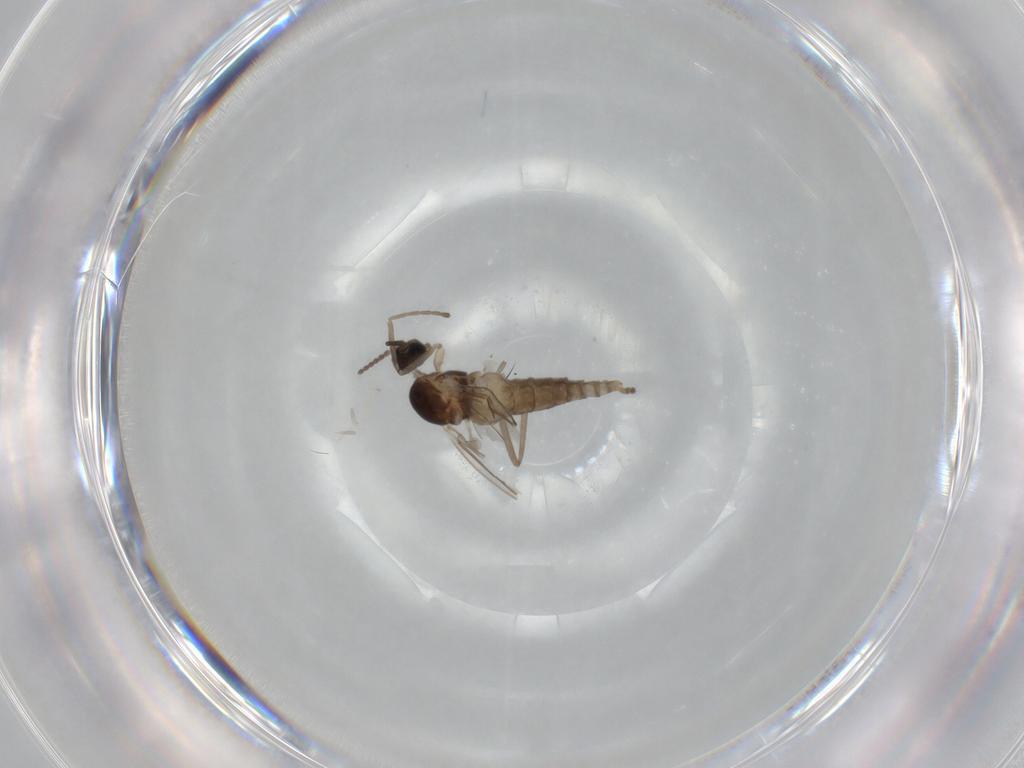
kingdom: Animalia
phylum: Arthropoda
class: Insecta
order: Diptera
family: Cecidomyiidae
